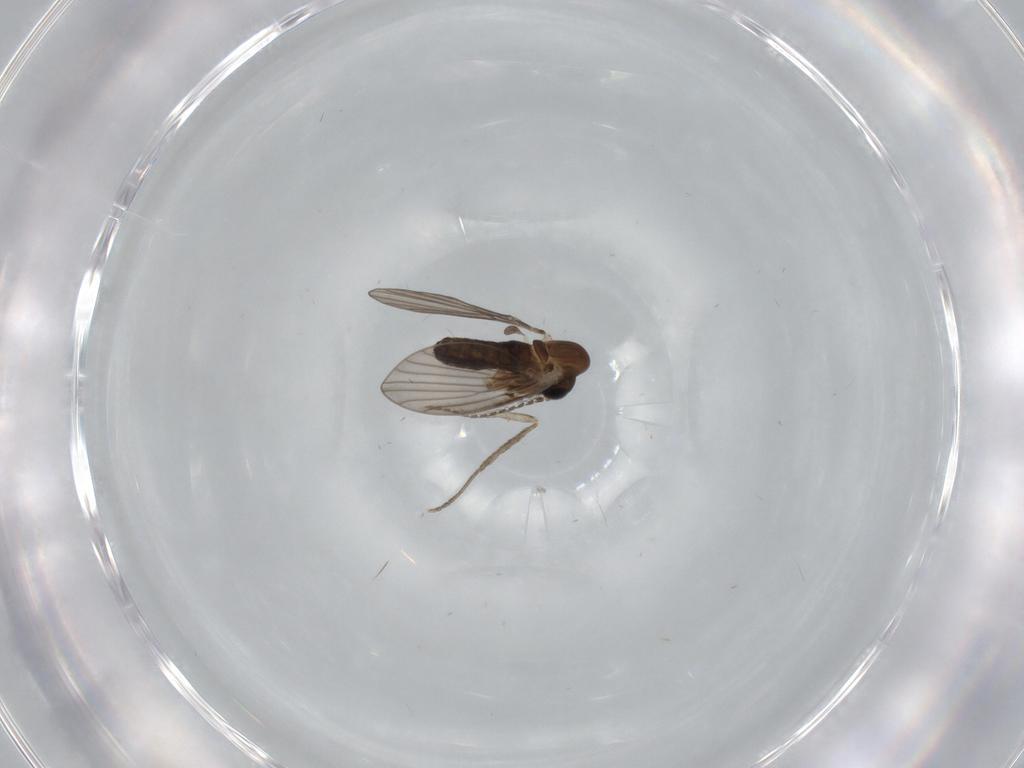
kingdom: Animalia
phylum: Arthropoda
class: Insecta
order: Diptera
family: Psychodidae
